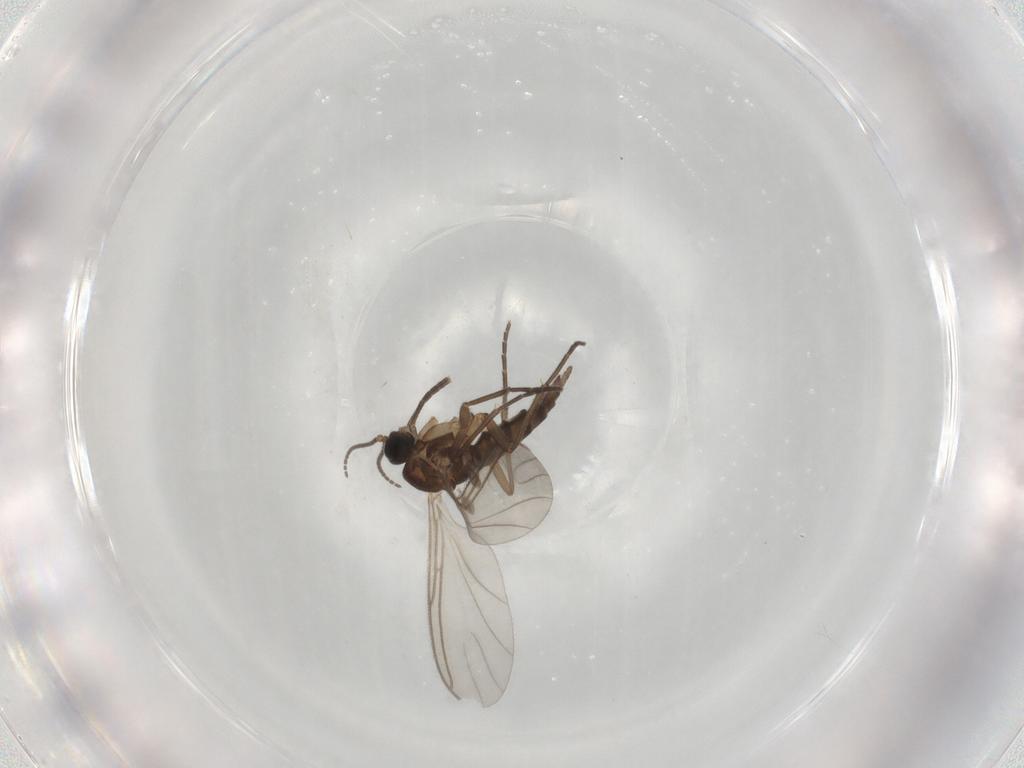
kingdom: Animalia
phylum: Arthropoda
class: Insecta
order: Diptera
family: Sciaridae
